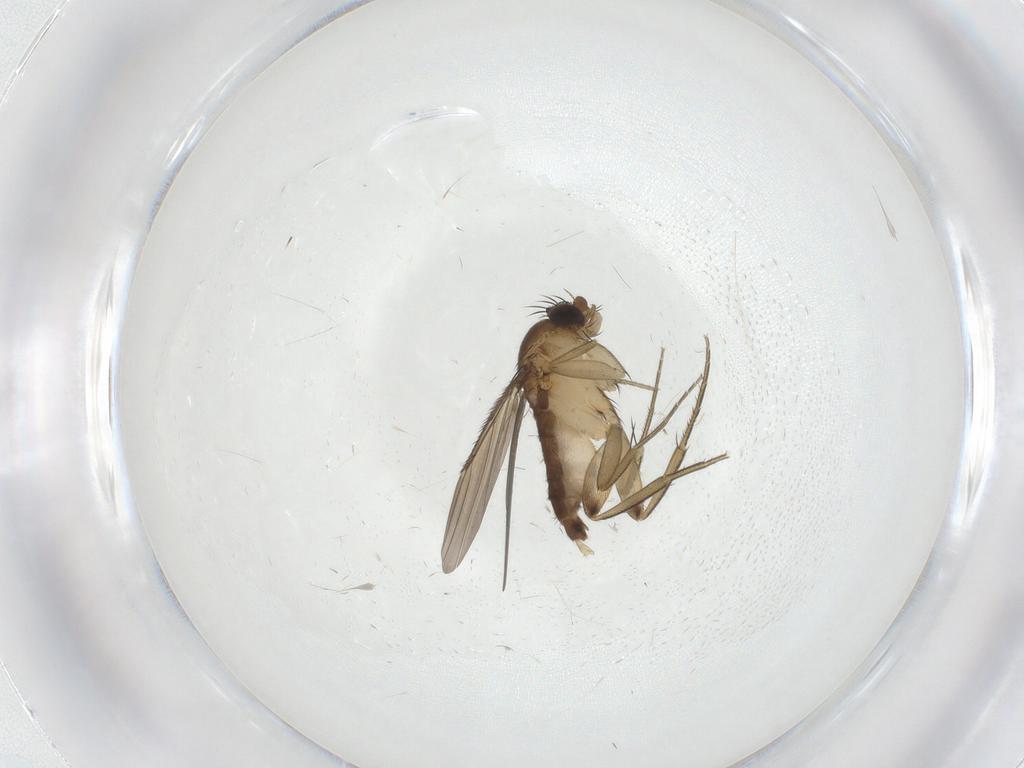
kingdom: Animalia
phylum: Arthropoda
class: Insecta
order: Diptera
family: Phoridae
